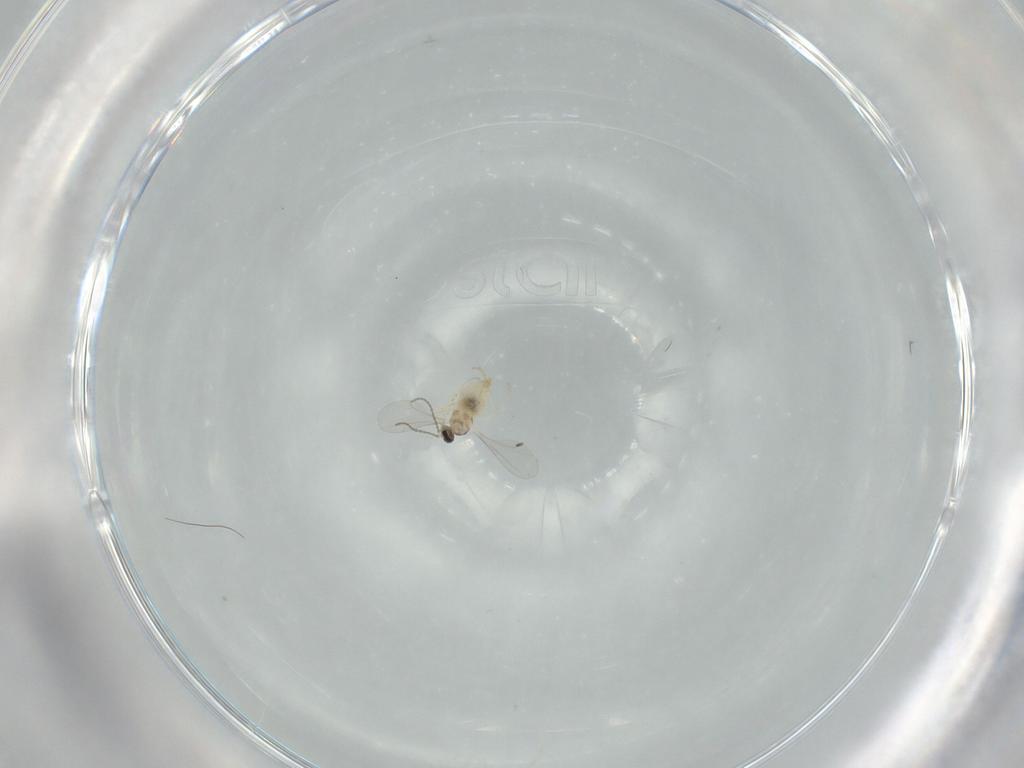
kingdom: Animalia
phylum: Arthropoda
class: Insecta
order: Diptera
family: Cecidomyiidae
